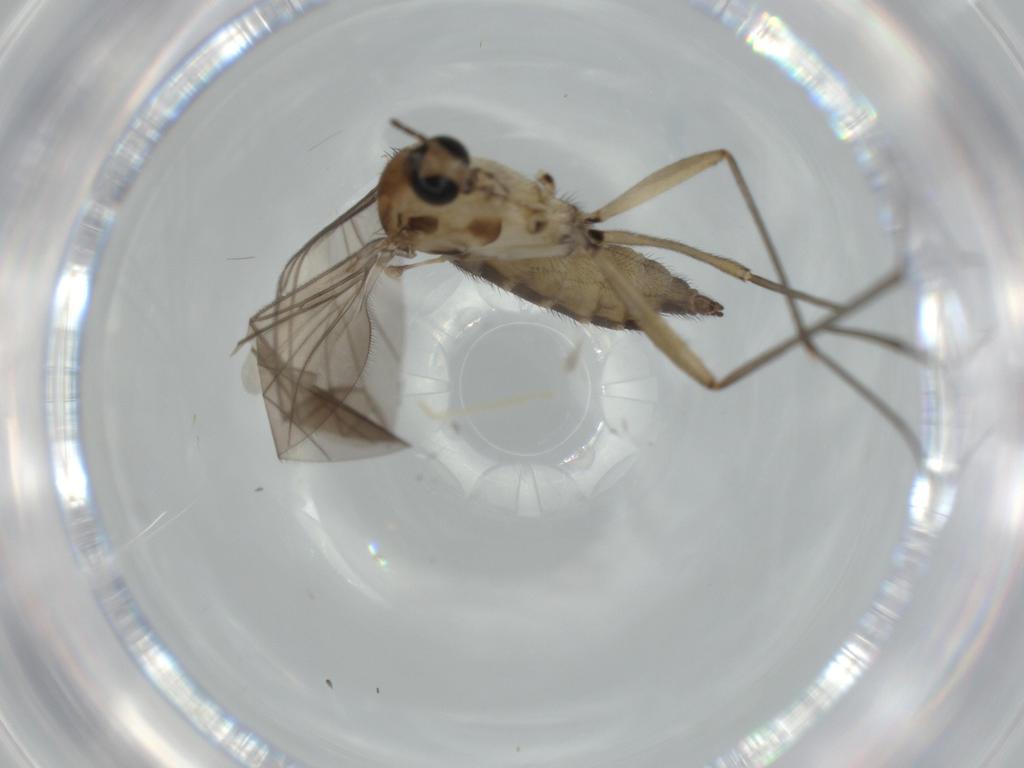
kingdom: Animalia
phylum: Arthropoda
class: Insecta
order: Diptera
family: Sciaridae
